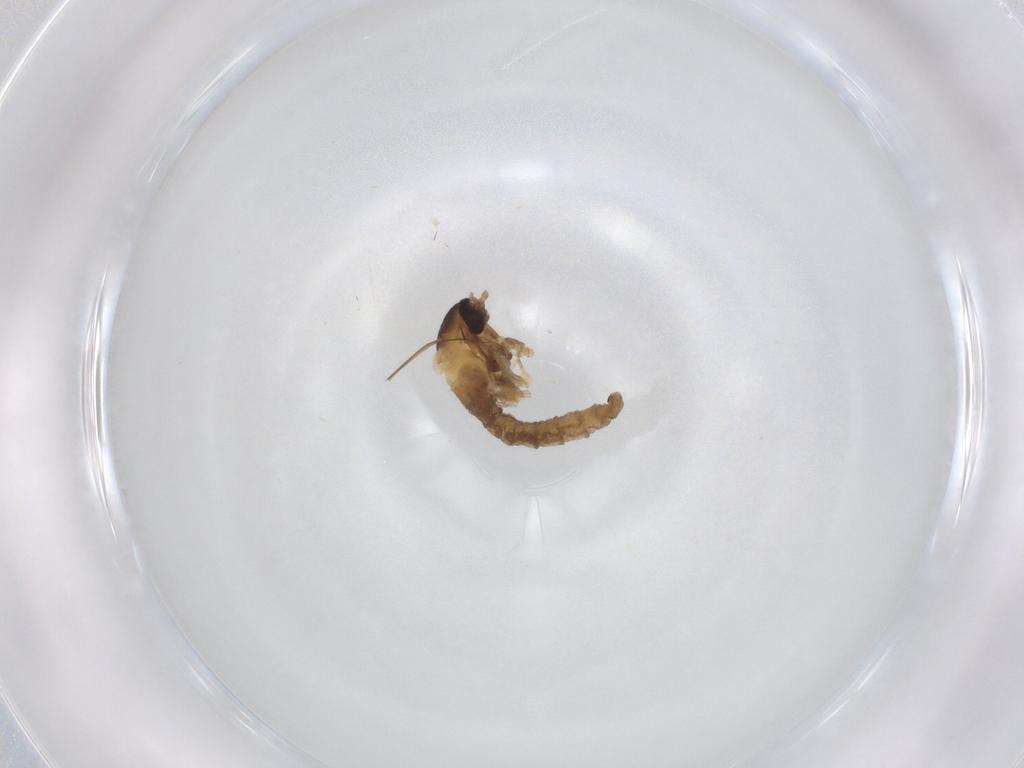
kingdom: Animalia
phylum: Arthropoda
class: Insecta
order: Diptera
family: Cecidomyiidae
